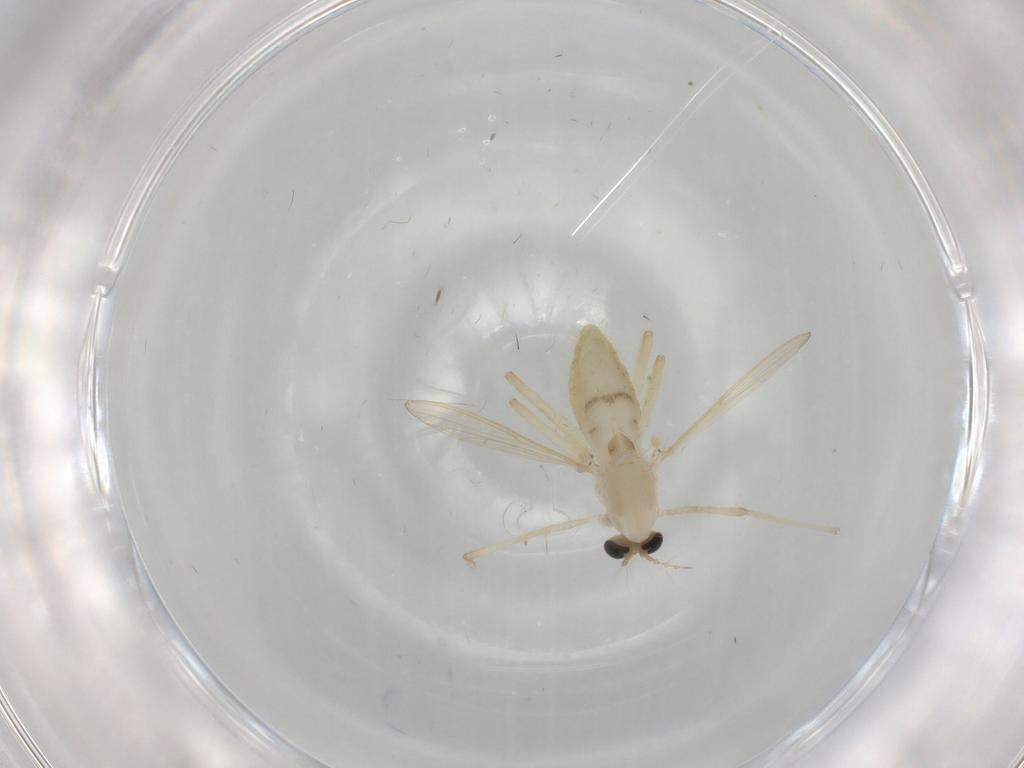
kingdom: Animalia
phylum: Arthropoda
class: Insecta
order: Diptera
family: Chironomidae
